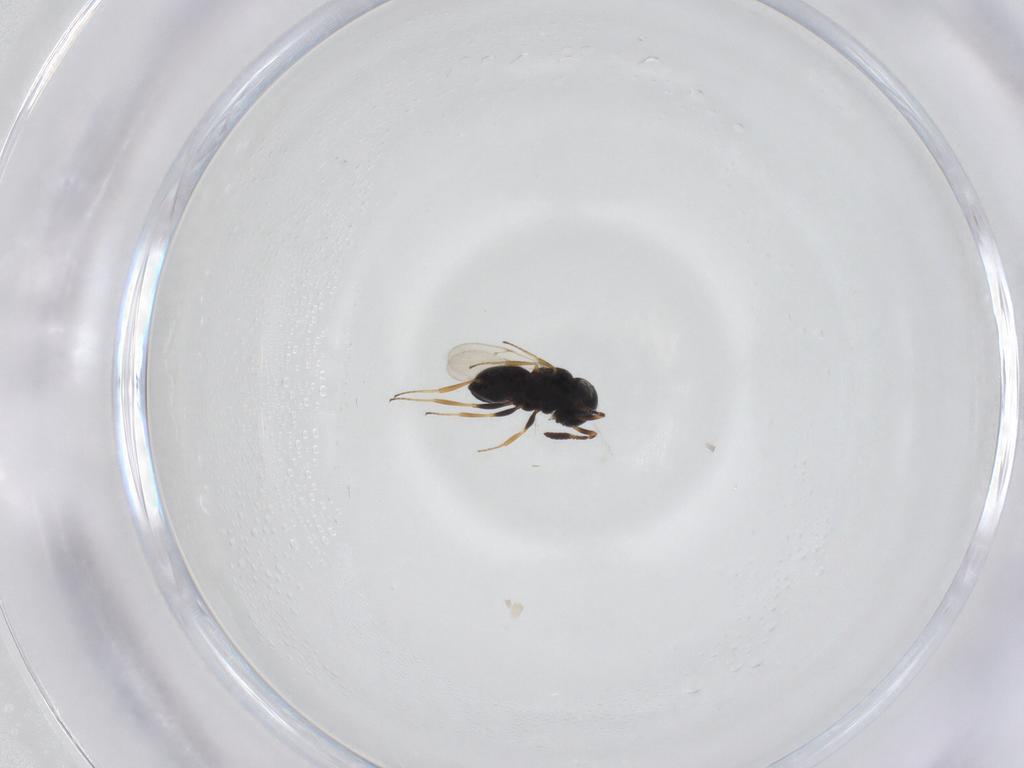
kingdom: Animalia
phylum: Arthropoda
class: Insecta
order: Hymenoptera
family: Scelionidae
